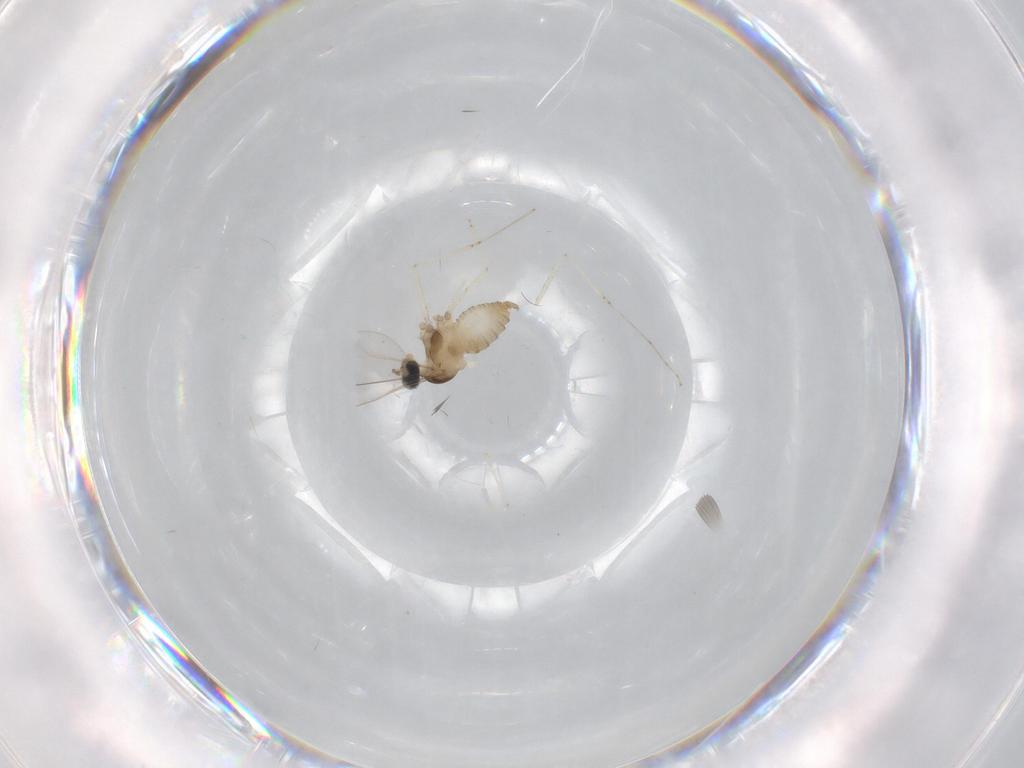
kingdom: Animalia
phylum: Arthropoda
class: Insecta
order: Diptera
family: Cecidomyiidae
